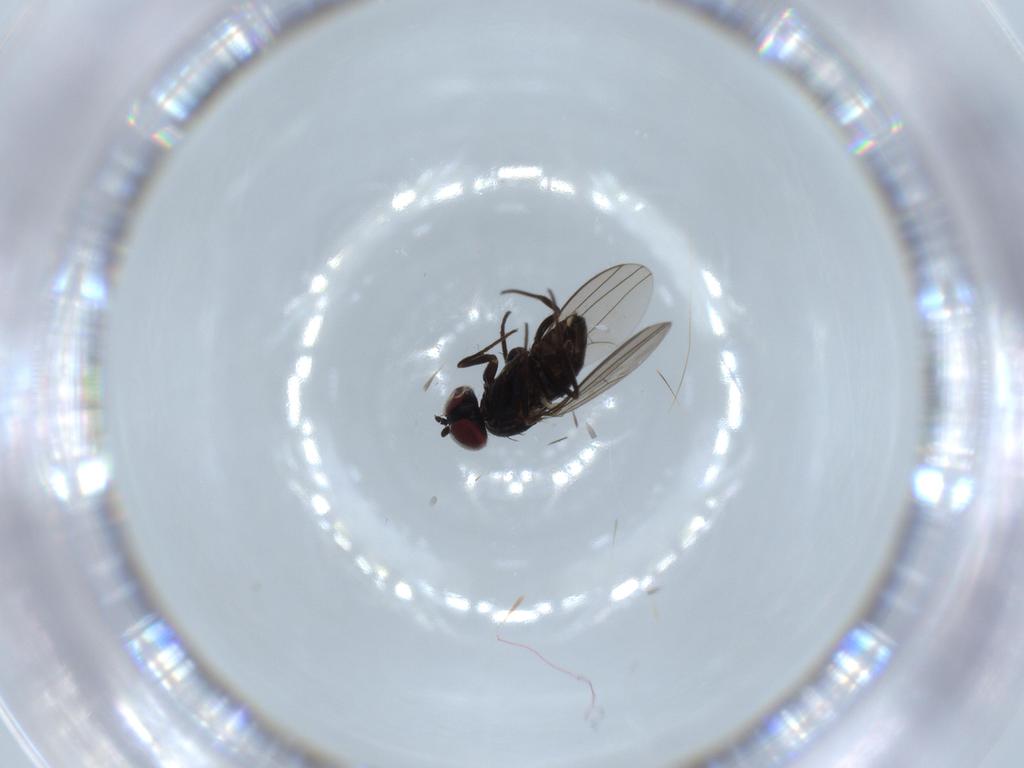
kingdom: Animalia
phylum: Arthropoda
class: Insecta
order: Diptera
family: Dolichopodidae
